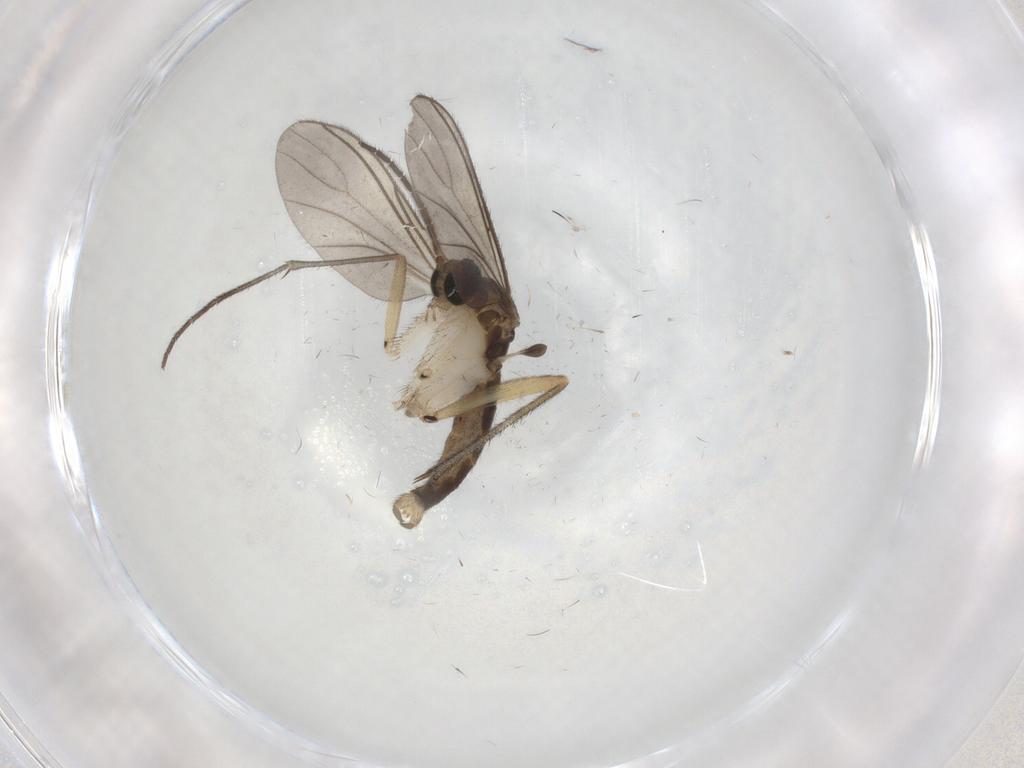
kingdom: Animalia
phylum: Arthropoda
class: Insecta
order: Diptera
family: Sciaridae
